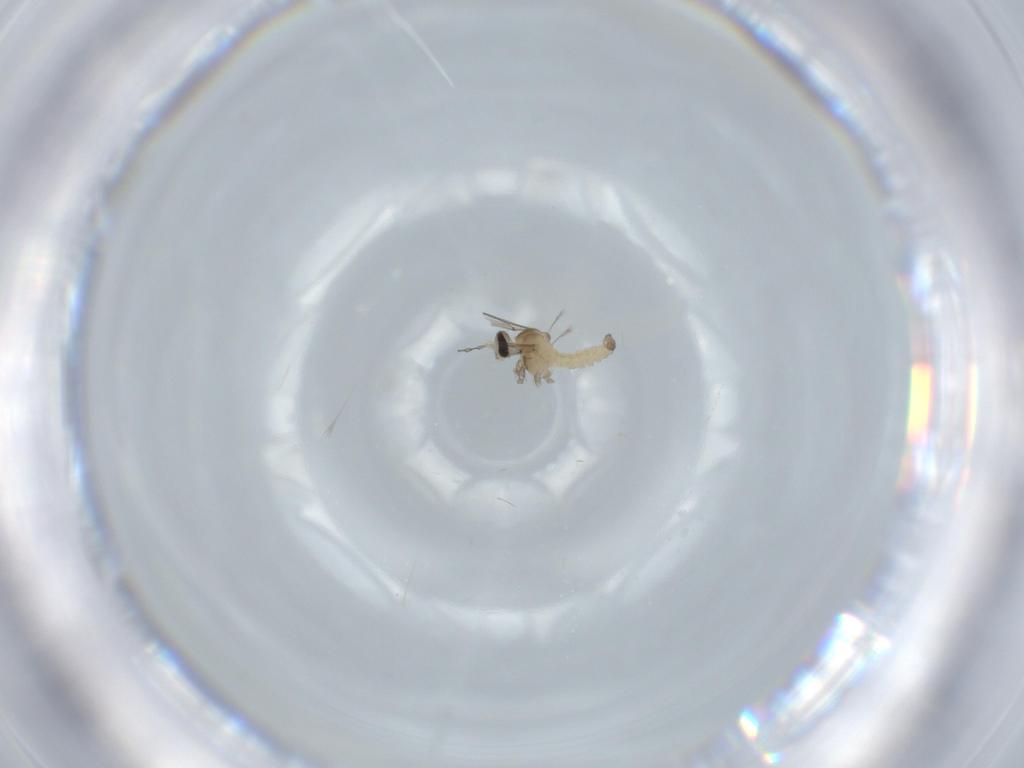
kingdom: Animalia
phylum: Arthropoda
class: Insecta
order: Diptera
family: Cecidomyiidae
